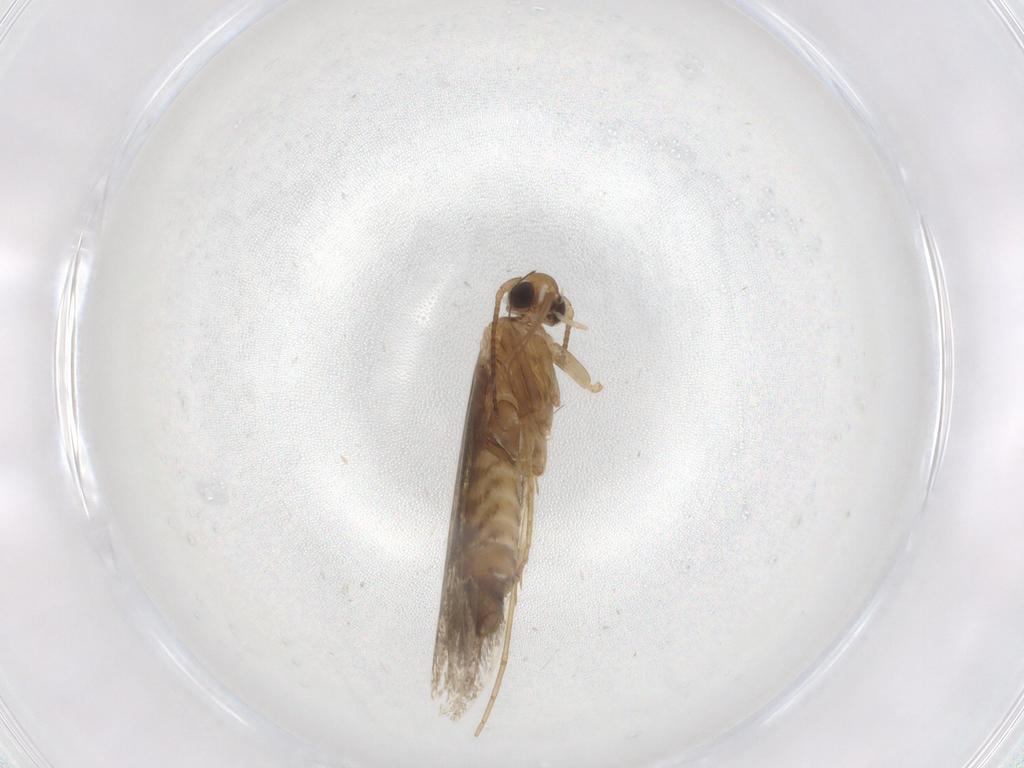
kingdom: Animalia
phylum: Arthropoda
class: Insecta
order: Lepidoptera
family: Gracillariidae
